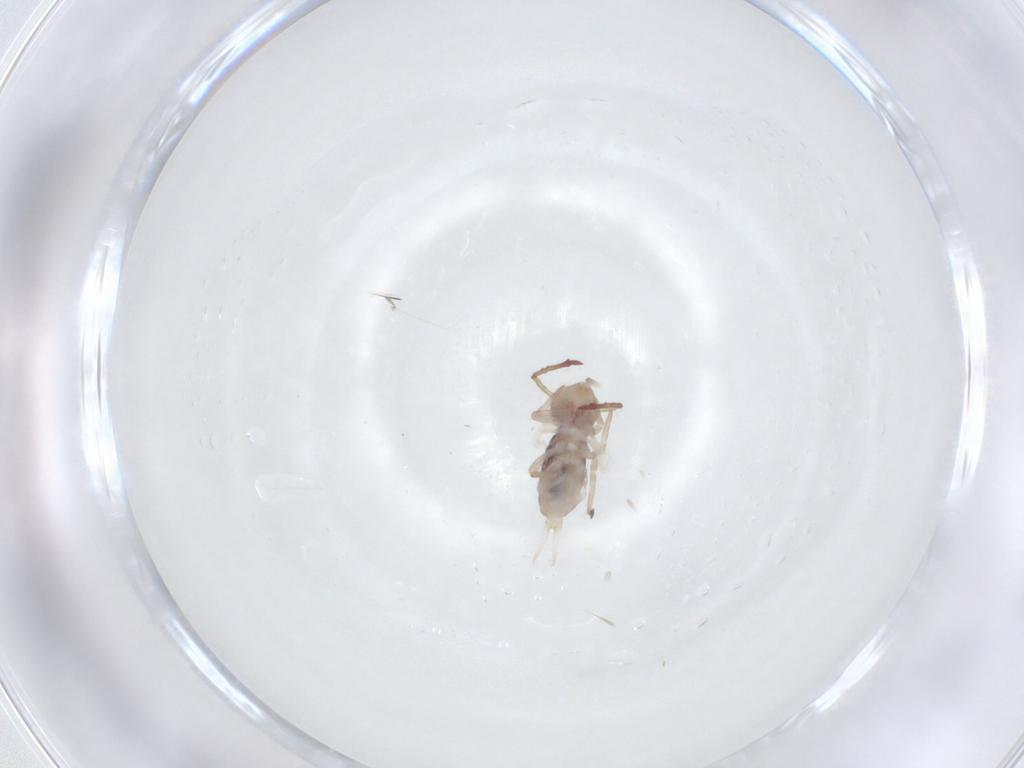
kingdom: Animalia
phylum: Arthropoda
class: Collembola
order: Symphypleona
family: Dicyrtomidae
